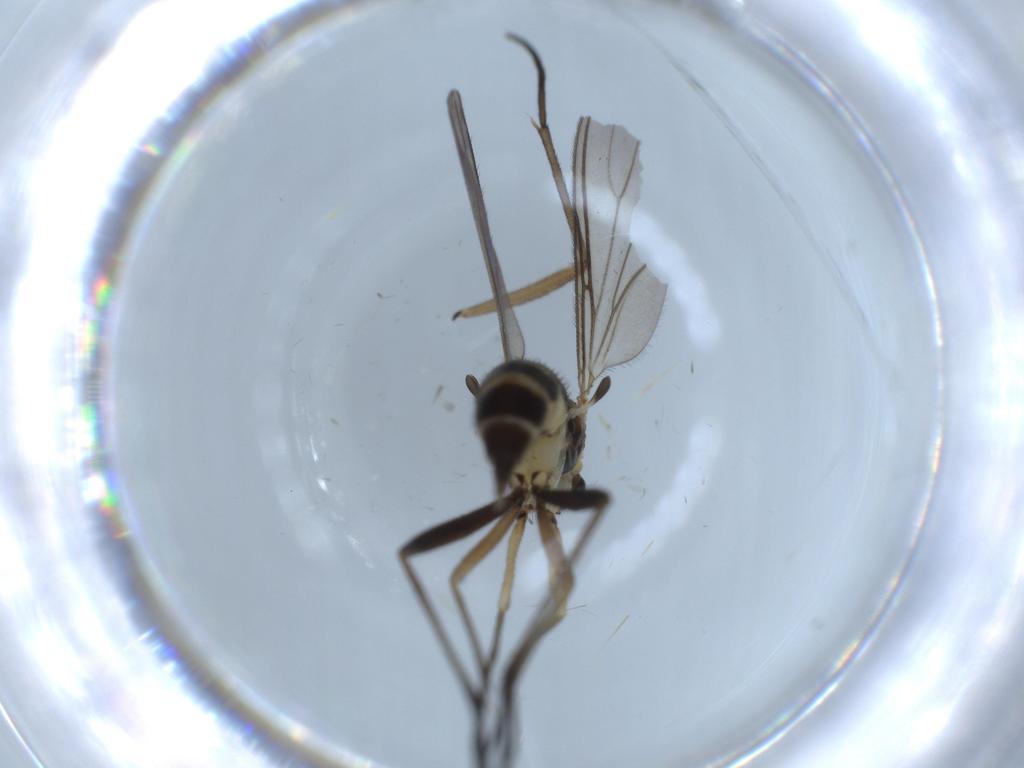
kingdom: Animalia
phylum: Arthropoda
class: Insecta
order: Diptera
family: Sciaridae
